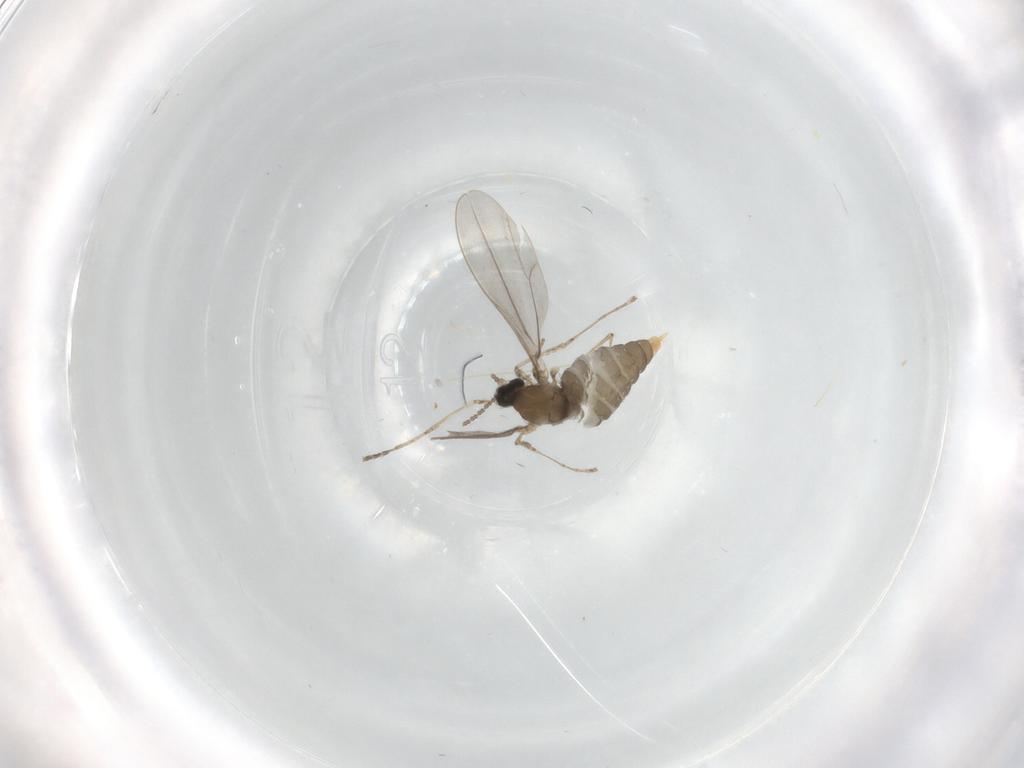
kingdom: Animalia
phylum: Arthropoda
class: Insecta
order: Diptera
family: Cecidomyiidae
